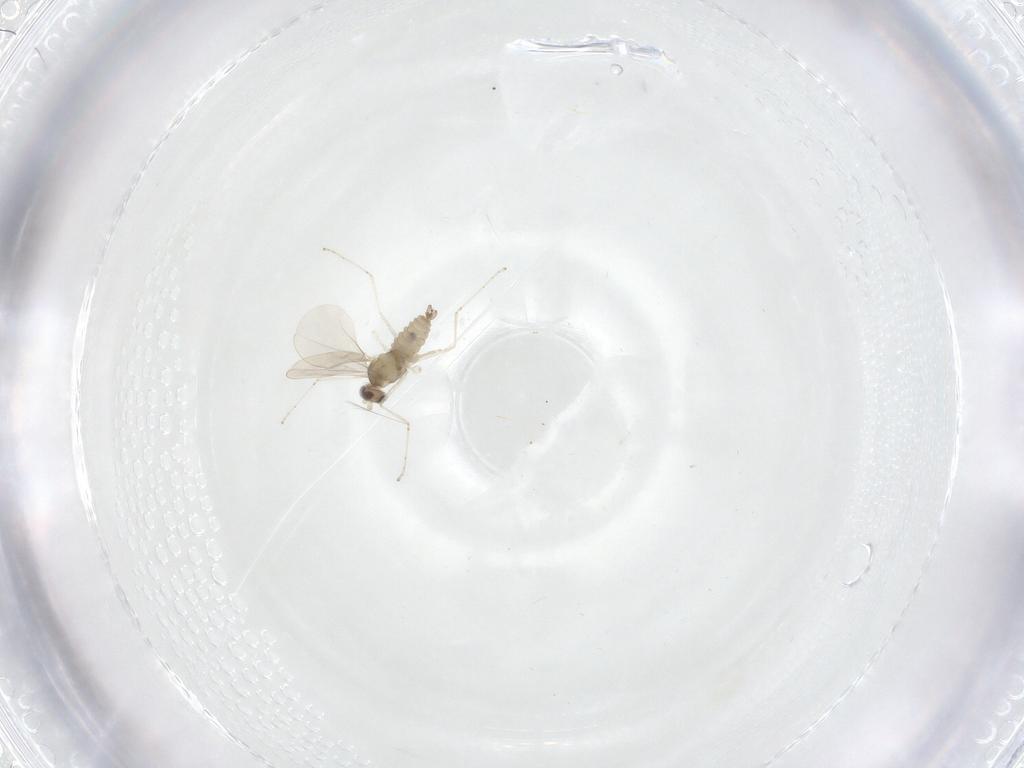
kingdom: Animalia
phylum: Arthropoda
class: Insecta
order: Diptera
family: Cecidomyiidae
